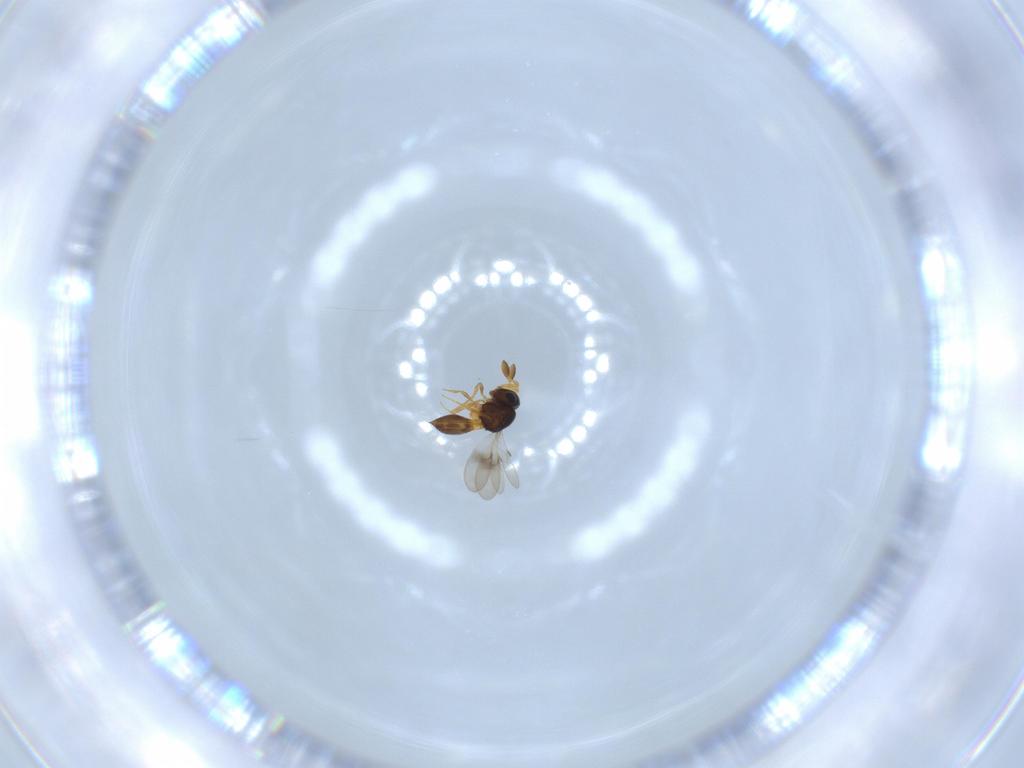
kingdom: Animalia
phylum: Arthropoda
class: Insecta
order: Hymenoptera
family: Scelionidae
